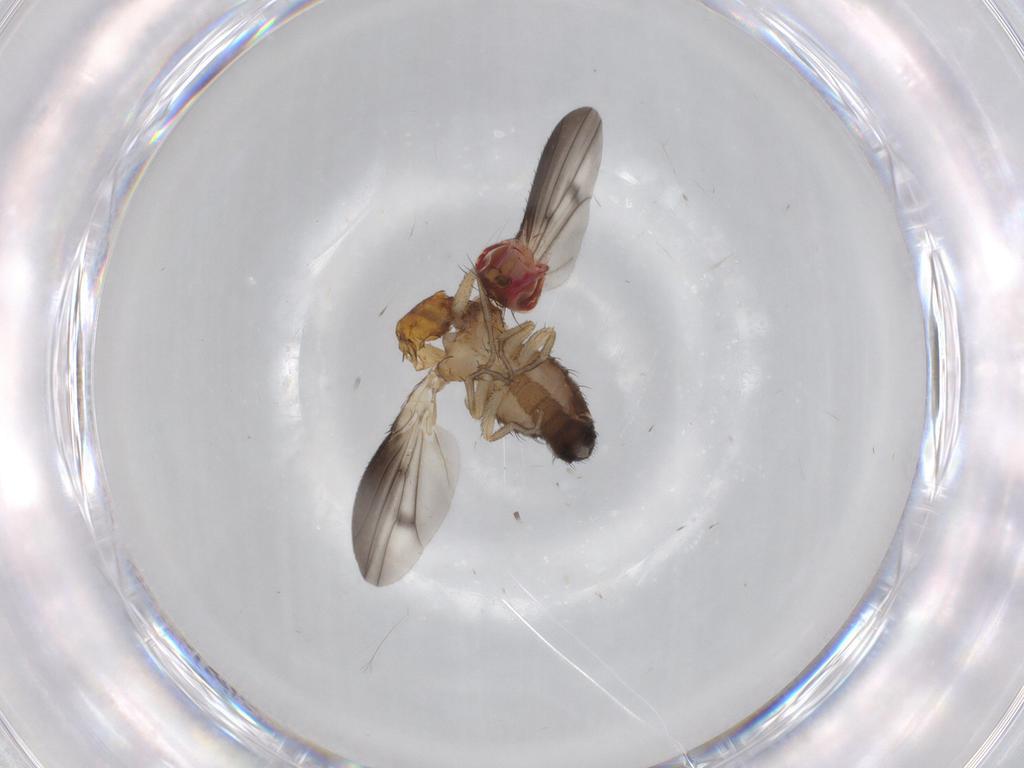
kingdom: Animalia
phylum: Arthropoda
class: Insecta
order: Diptera
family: Heleomyzidae
